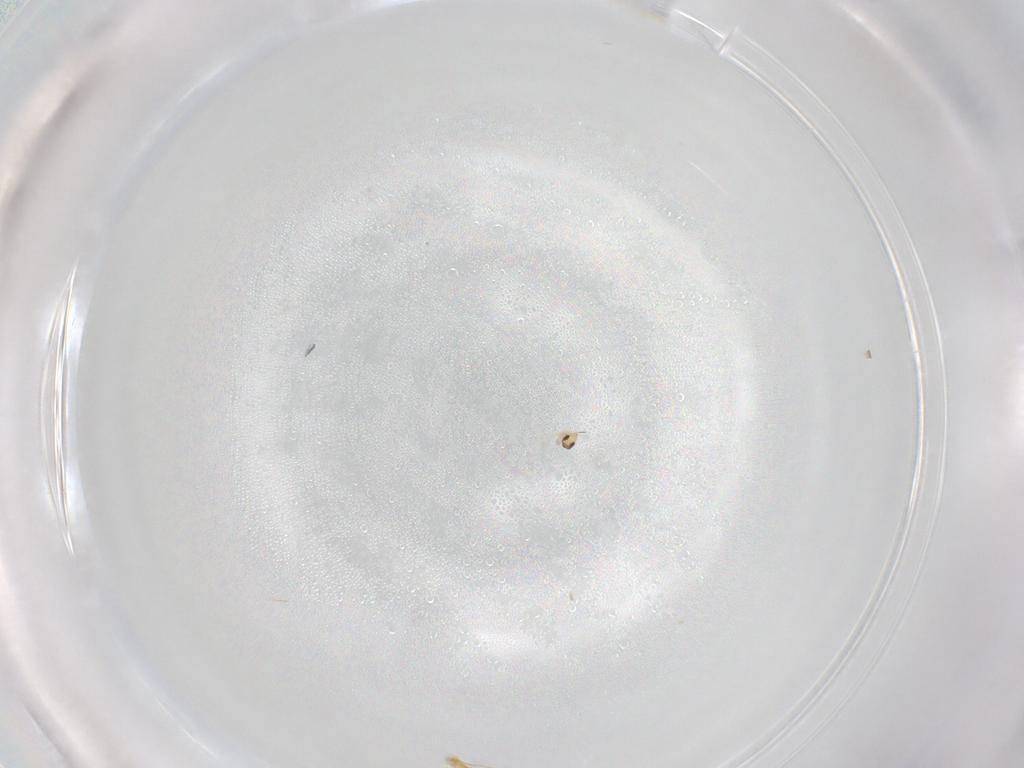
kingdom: Animalia
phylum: Arthropoda
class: Insecta
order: Hymenoptera
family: Mymaridae
